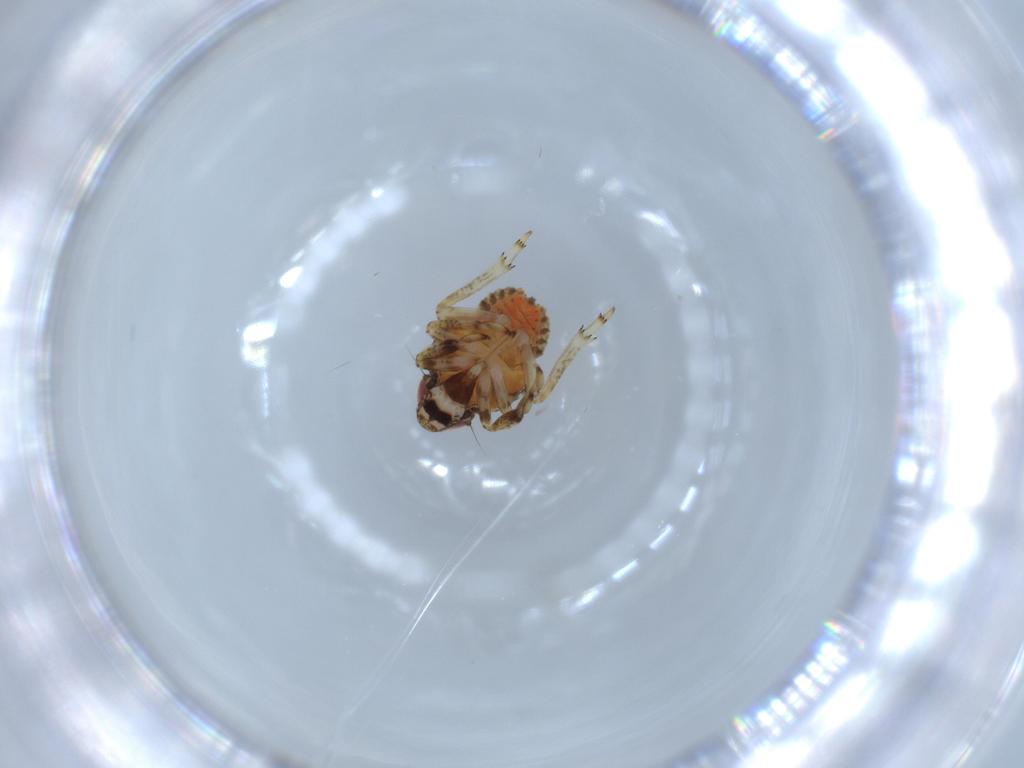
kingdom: Animalia
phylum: Arthropoda
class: Insecta
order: Hemiptera
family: Issidae
